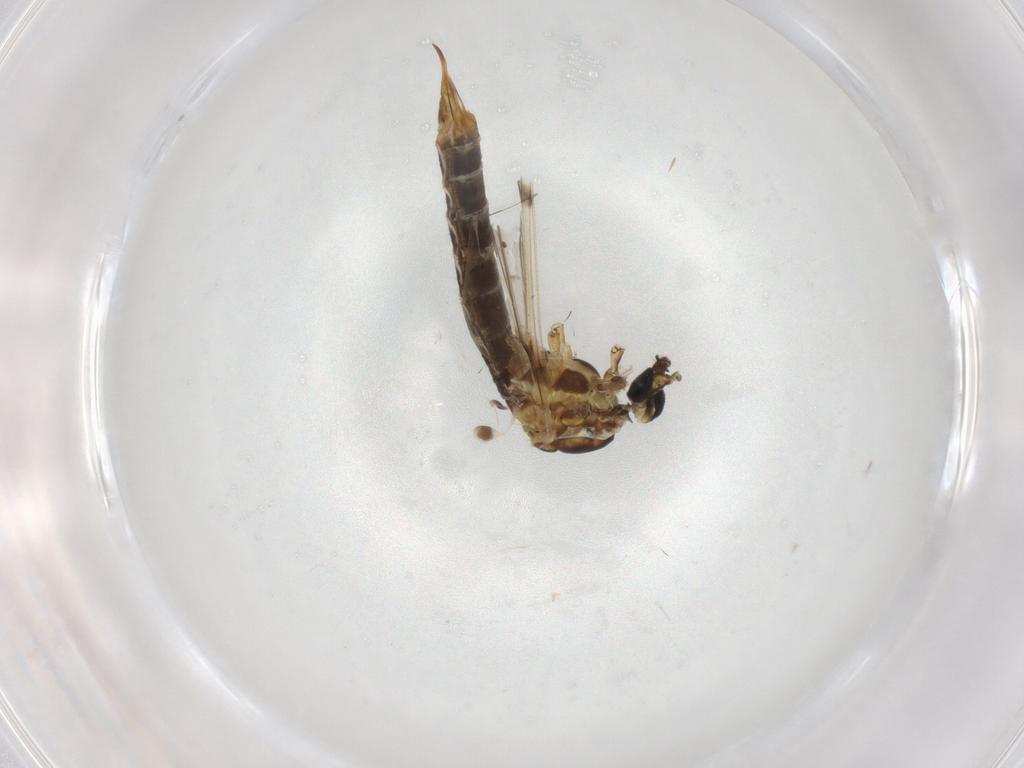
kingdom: Animalia
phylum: Arthropoda
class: Insecta
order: Diptera
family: Limoniidae
